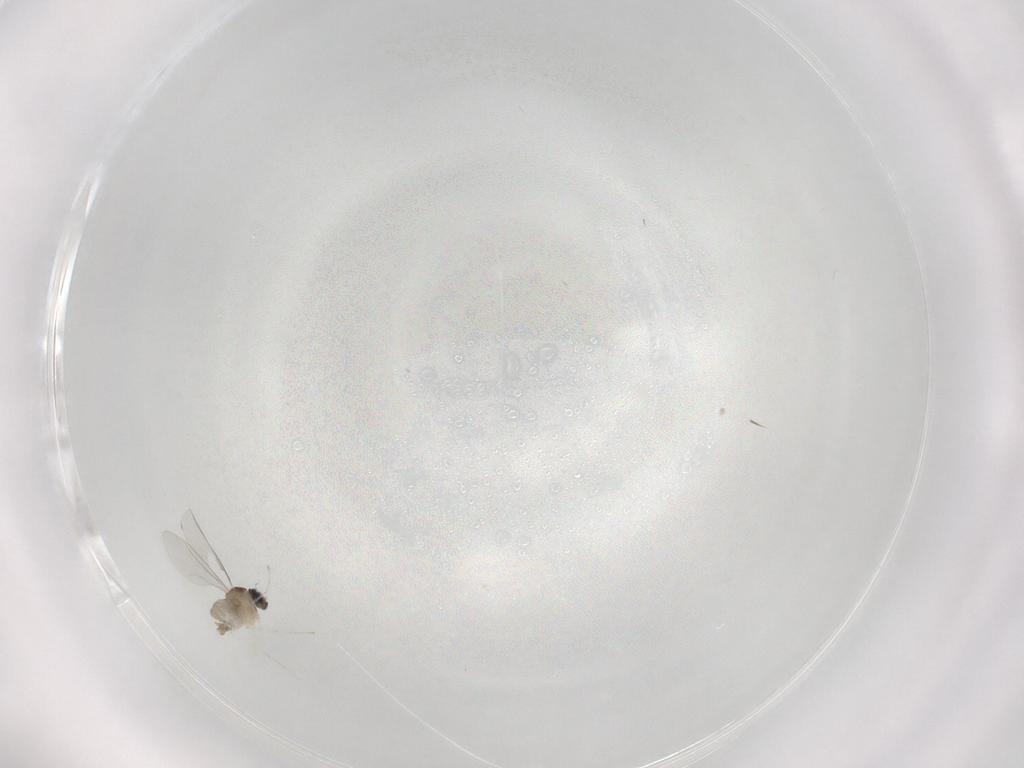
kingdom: Animalia
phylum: Arthropoda
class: Insecta
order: Diptera
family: Cecidomyiidae
